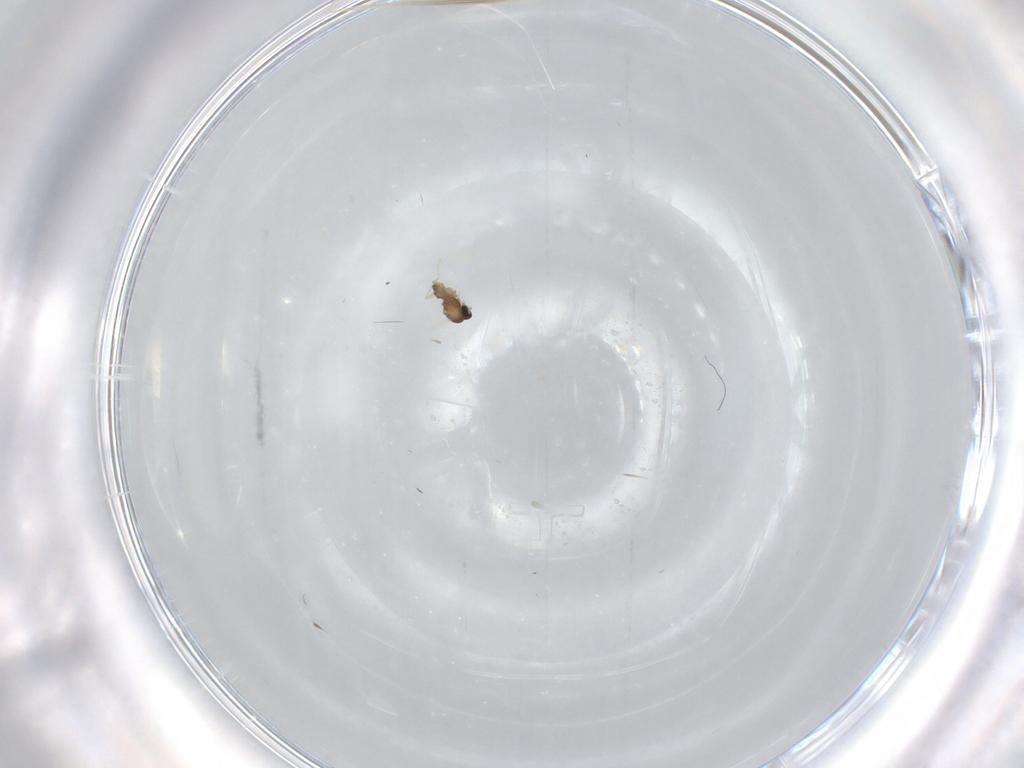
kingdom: Animalia
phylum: Arthropoda
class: Insecta
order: Diptera
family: Cecidomyiidae
